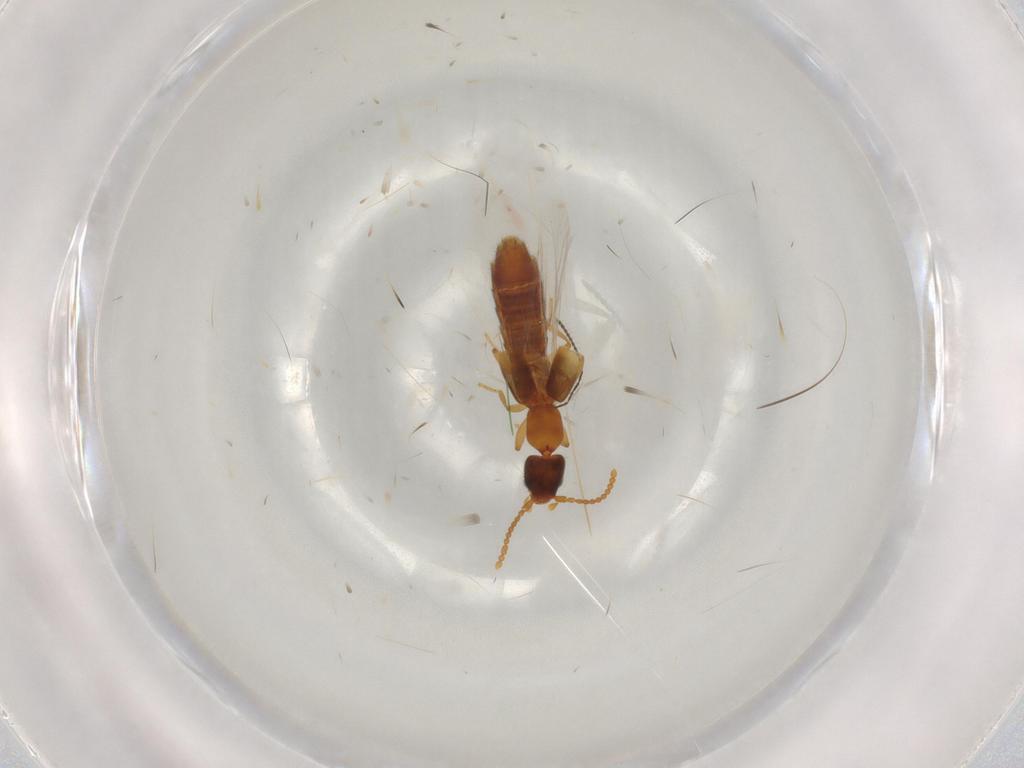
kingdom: Animalia
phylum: Arthropoda
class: Insecta
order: Coleoptera
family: Staphylinidae
